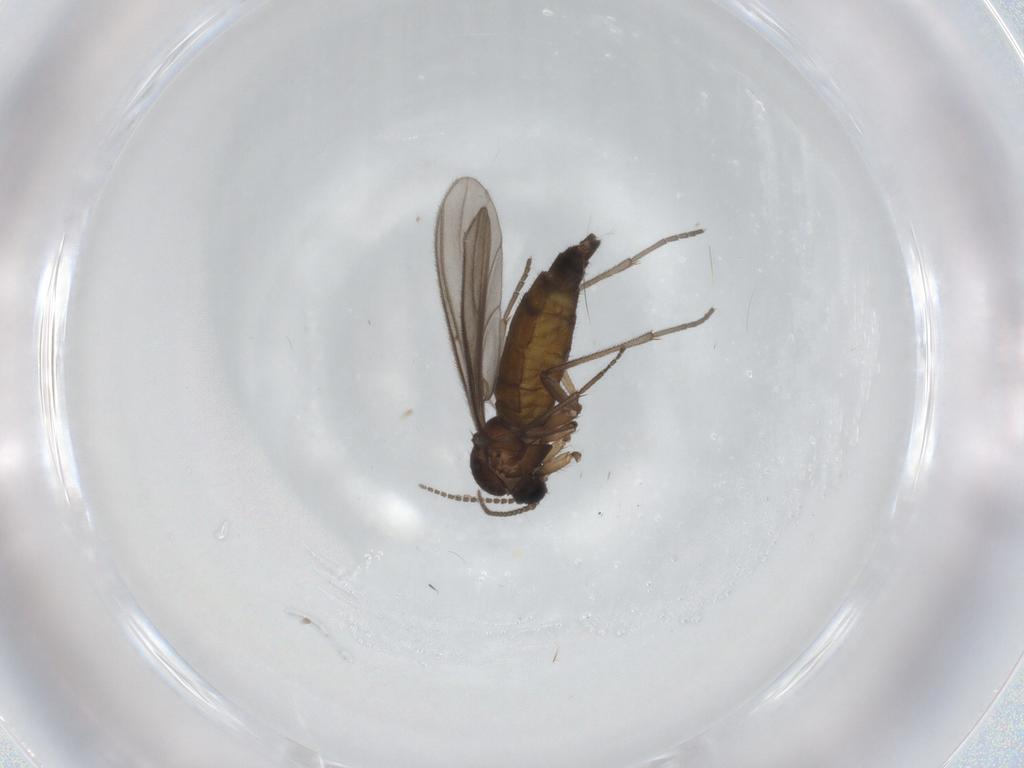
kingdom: Animalia
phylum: Arthropoda
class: Insecta
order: Diptera
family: Sciaridae
